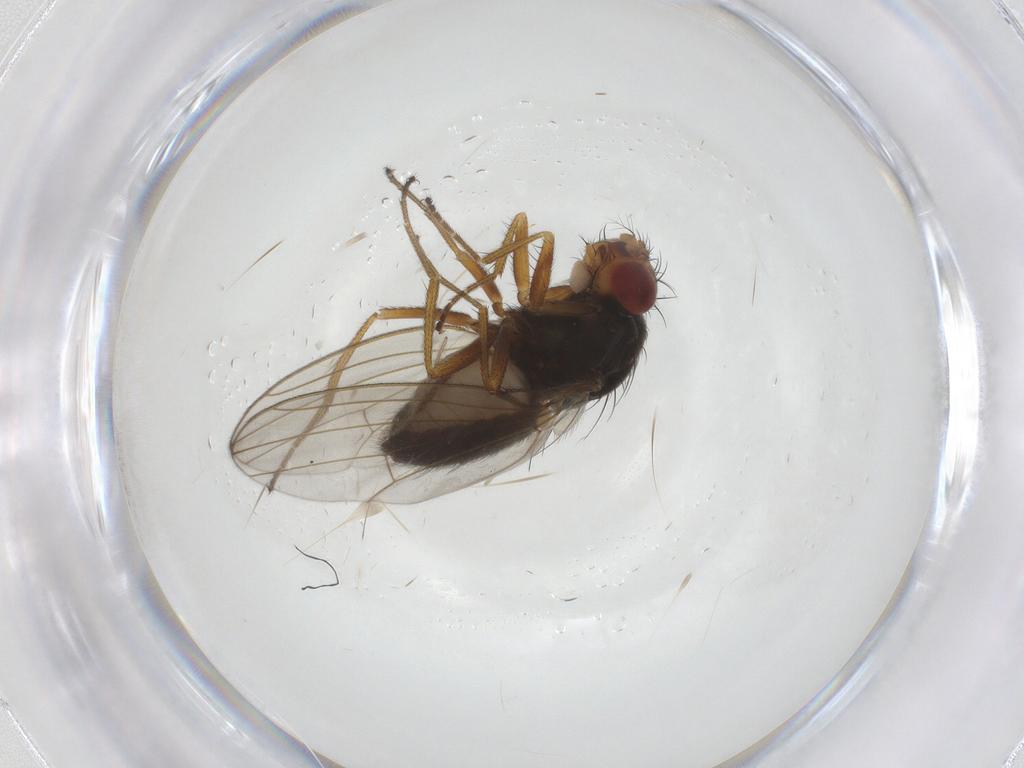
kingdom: Animalia
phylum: Arthropoda
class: Insecta
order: Diptera
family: Drosophilidae
